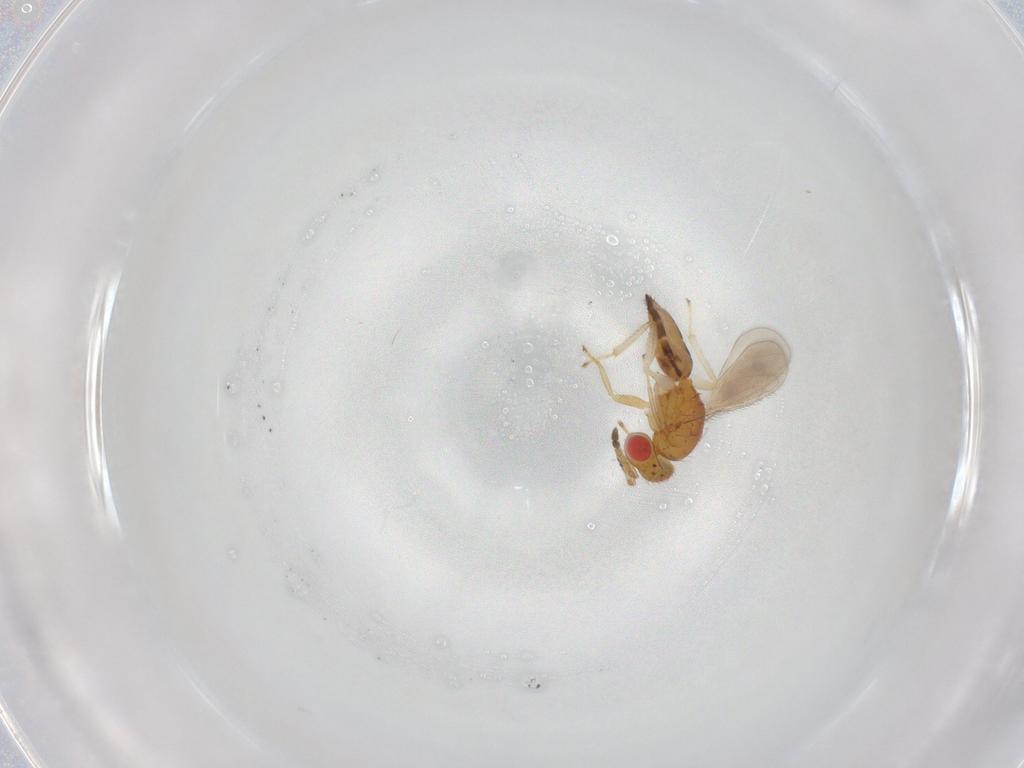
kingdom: Animalia
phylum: Arthropoda
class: Insecta
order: Hymenoptera
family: Eulophidae
